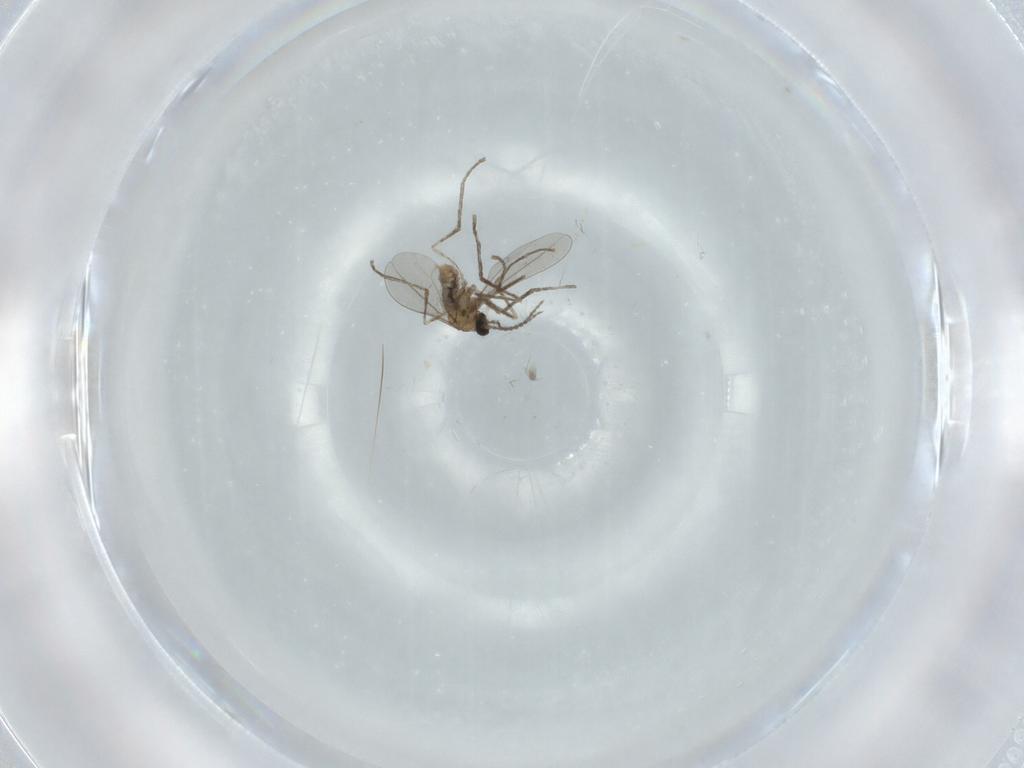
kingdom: Animalia
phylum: Arthropoda
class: Insecta
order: Diptera
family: Cecidomyiidae
